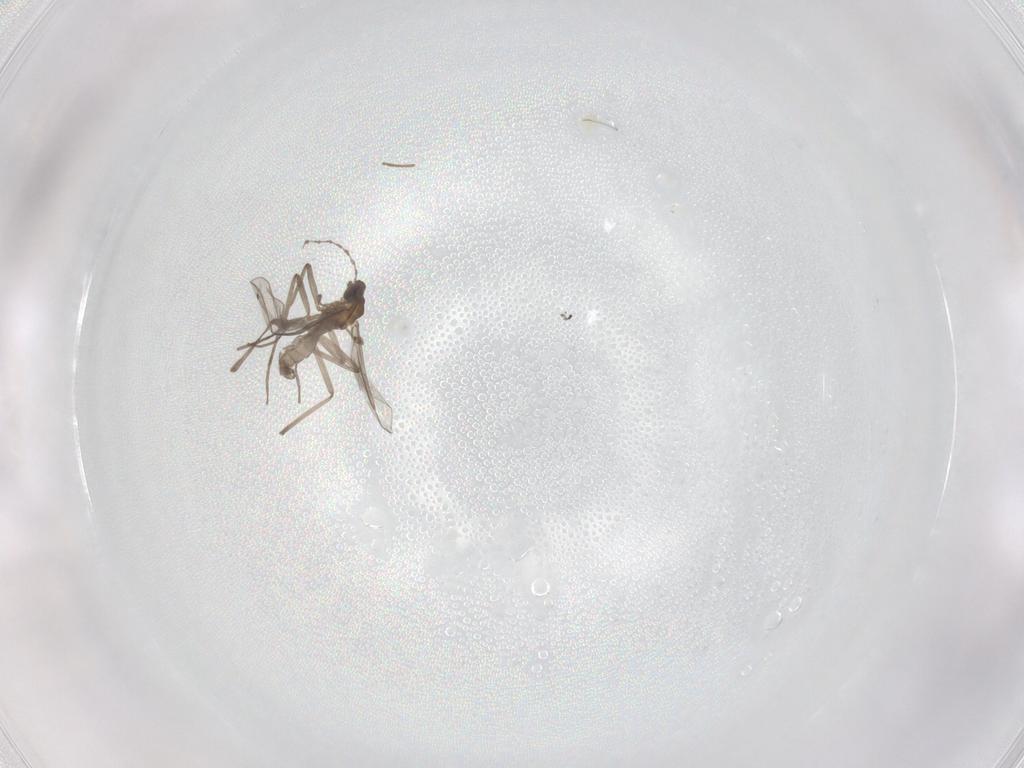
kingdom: Animalia
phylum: Arthropoda
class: Insecta
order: Diptera
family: Cecidomyiidae
